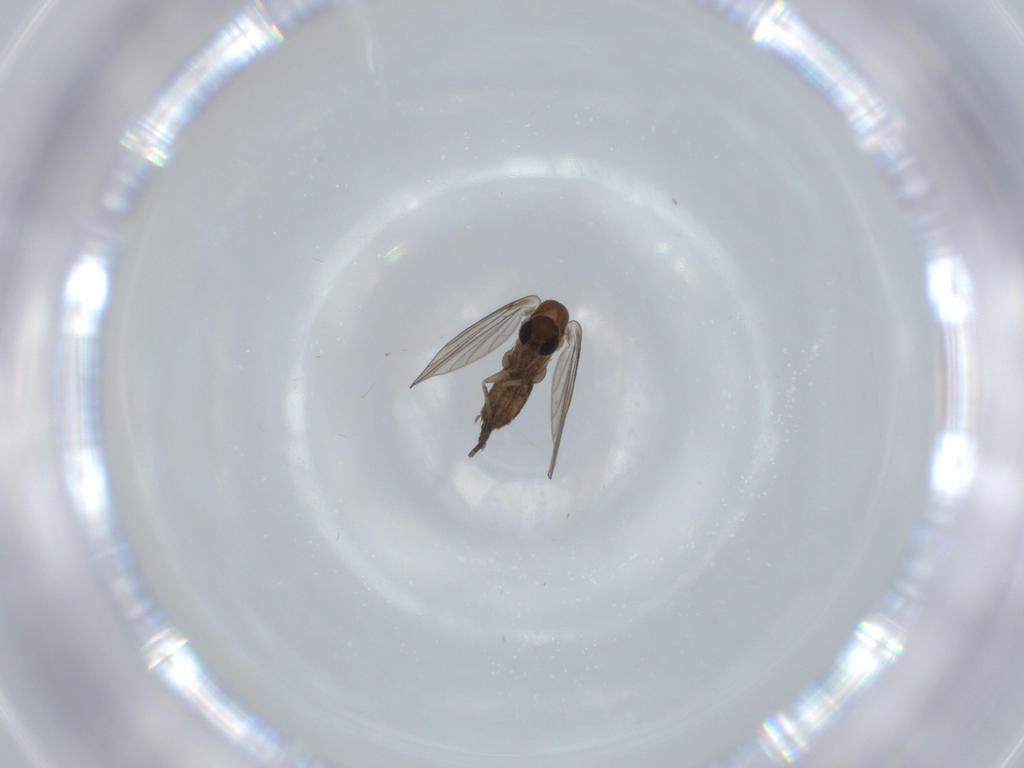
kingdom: Animalia
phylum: Arthropoda
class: Insecta
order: Diptera
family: Psychodidae
